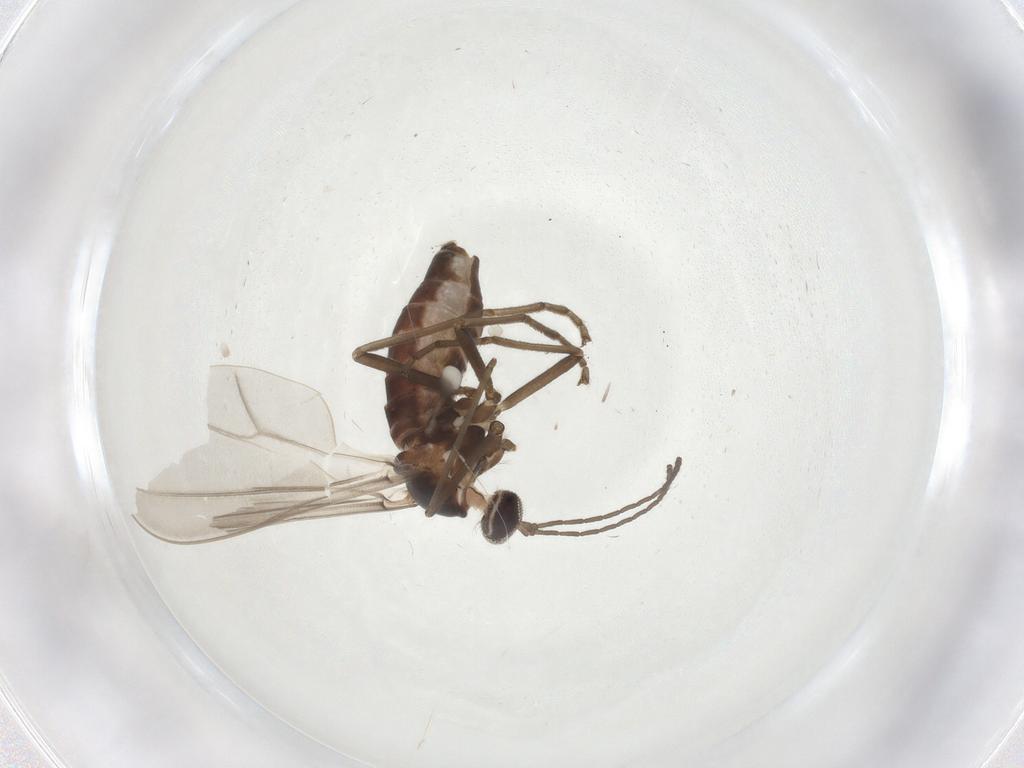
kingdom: Animalia
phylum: Arthropoda
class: Insecta
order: Diptera
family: Cecidomyiidae
